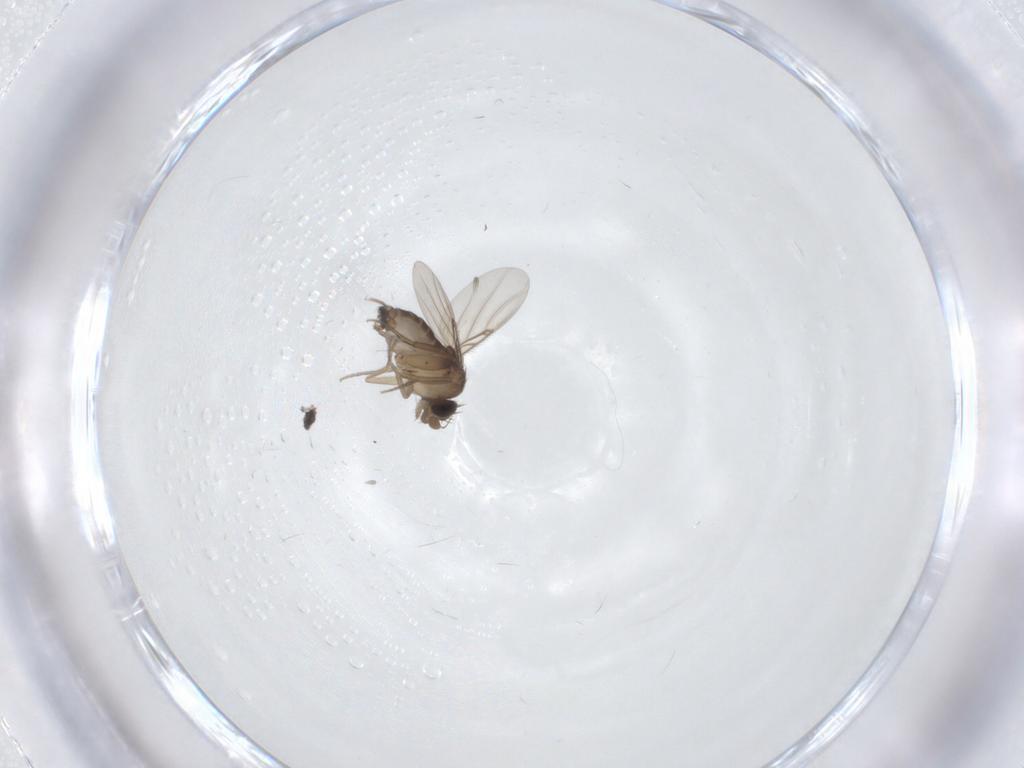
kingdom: Animalia
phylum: Arthropoda
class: Insecta
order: Diptera
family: Phoridae
